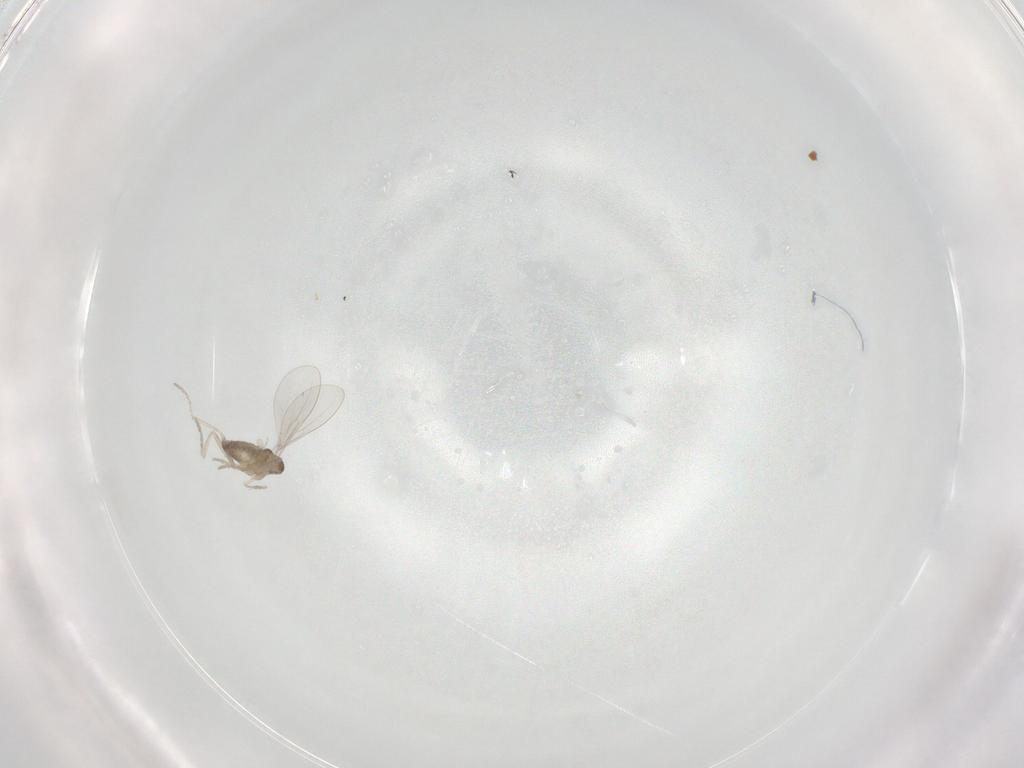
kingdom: Animalia
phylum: Arthropoda
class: Insecta
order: Diptera
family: Cecidomyiidae
